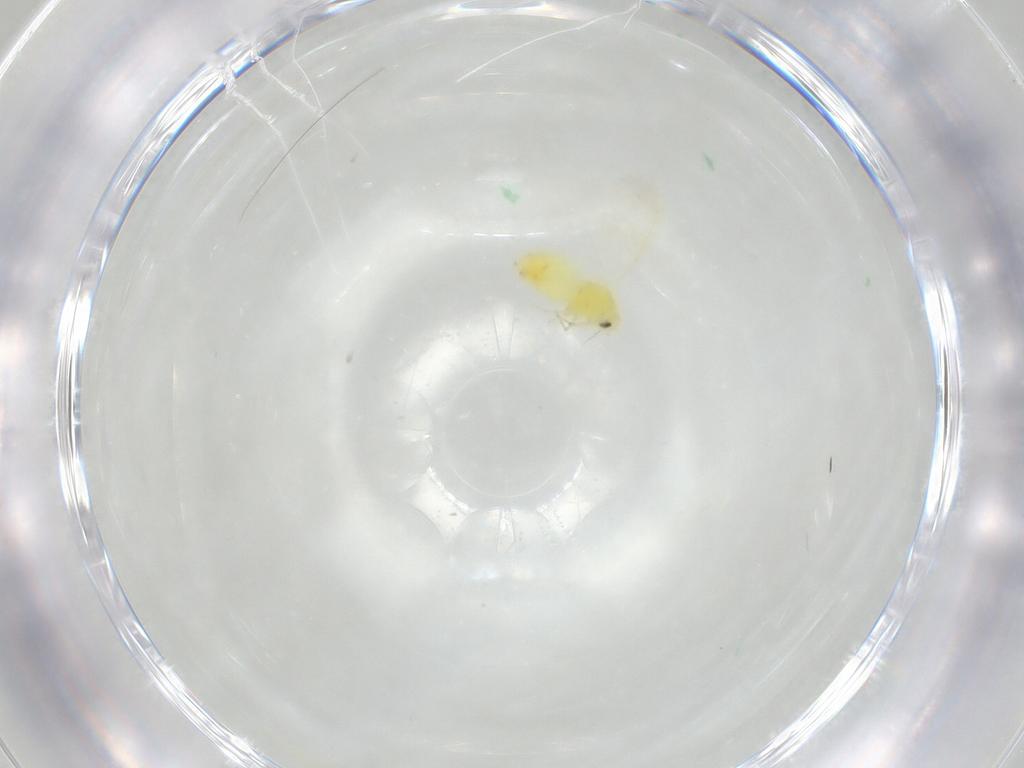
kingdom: Animalia
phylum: Arthropoda
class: Insecta
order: Hemiptera
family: Aleyrodidae
